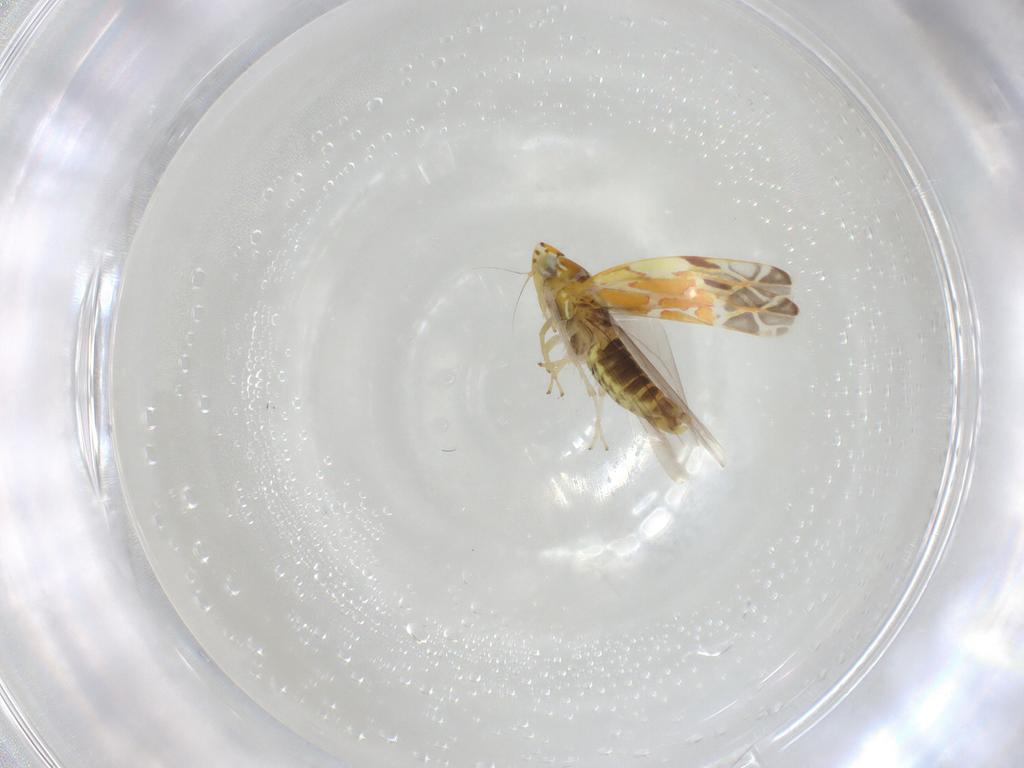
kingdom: Animalia
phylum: Arthropoda
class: Insecta
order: Hemiptera
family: Cicadellidae
